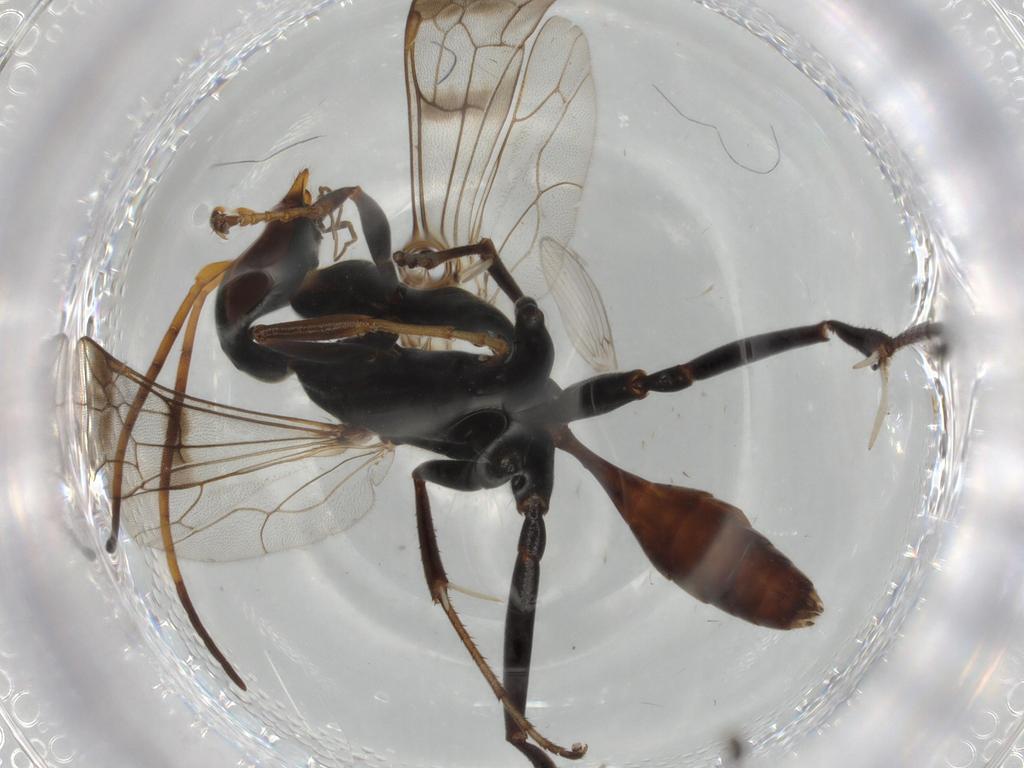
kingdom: Animalia
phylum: Arthropoda
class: Insecta
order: Hymenoptera
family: Bethylidae
